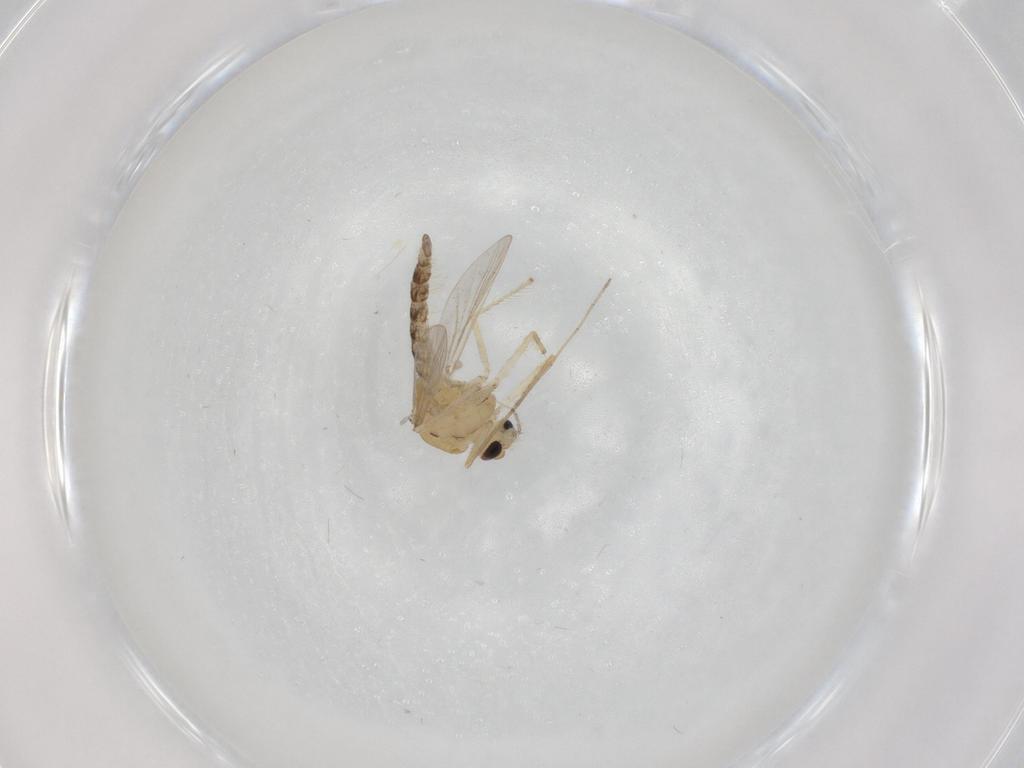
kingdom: Animalia
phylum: Arthropoda
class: Insecta
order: Diptera
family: Chironomidae
